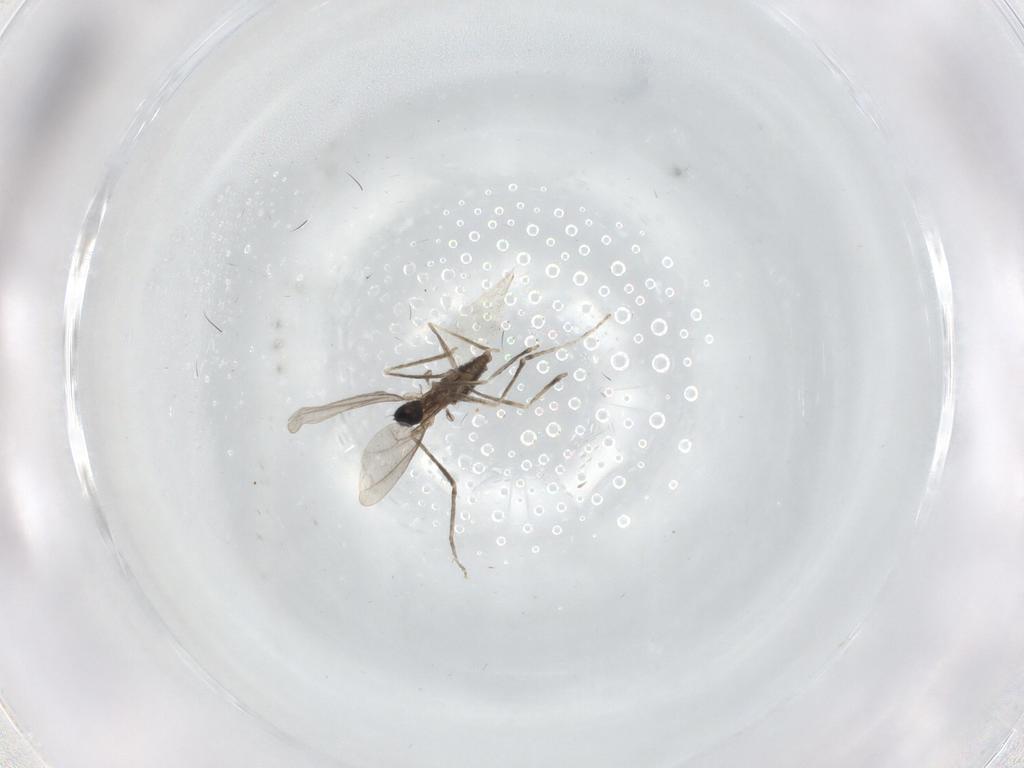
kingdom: Animalia
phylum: Arthropoda
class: Insecta
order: Diptera
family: Cecidomyiidae
